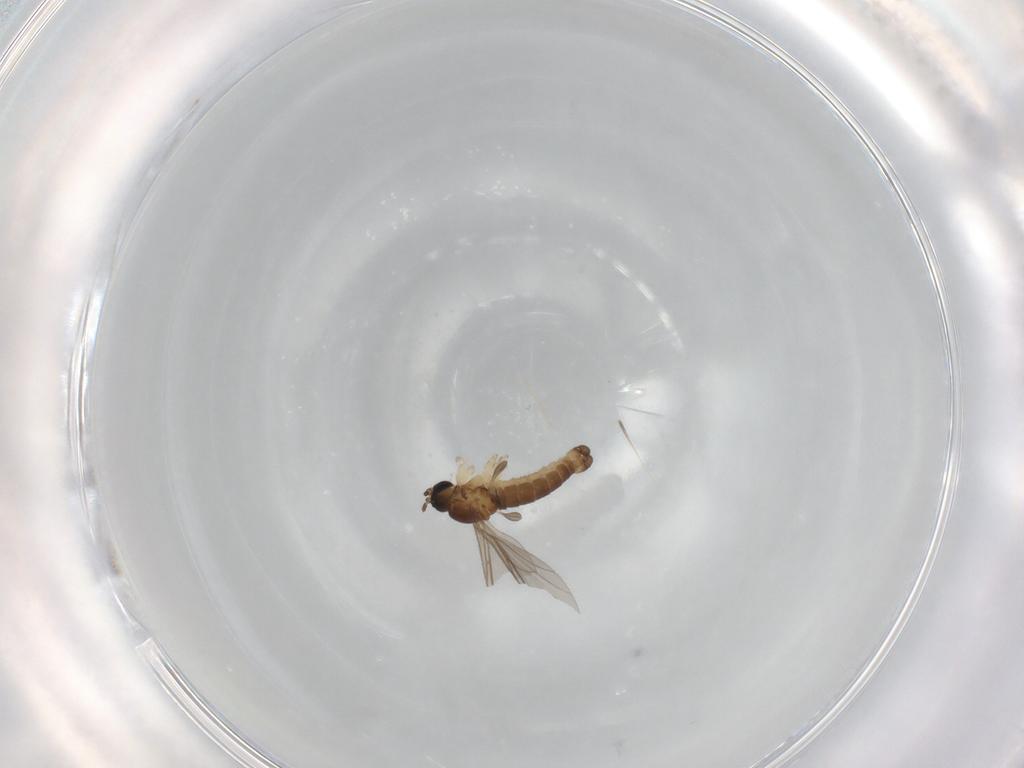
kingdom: Animalia
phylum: Arthropoda
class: Insecta
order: Diptera
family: Sciaridae
